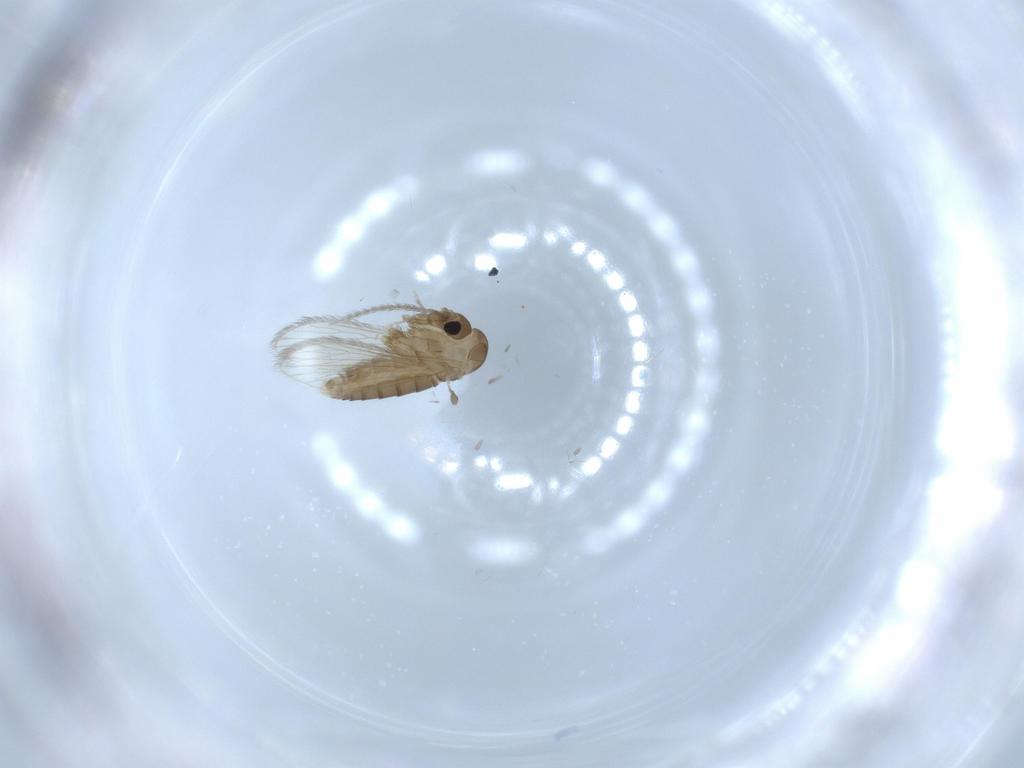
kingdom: Animalia
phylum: Arthropoda
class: Insecta
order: Diptera
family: Psychodidae
